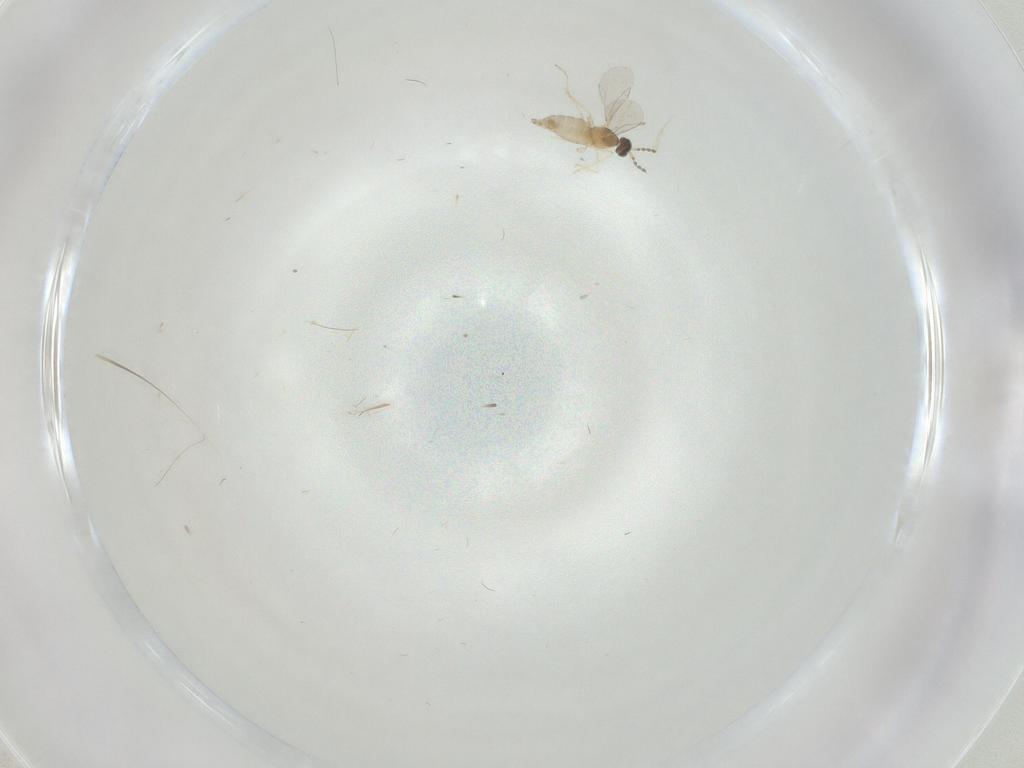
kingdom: Animalia
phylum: Arthropoda
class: Insecta
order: Diptera
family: Cecidomyiidae
